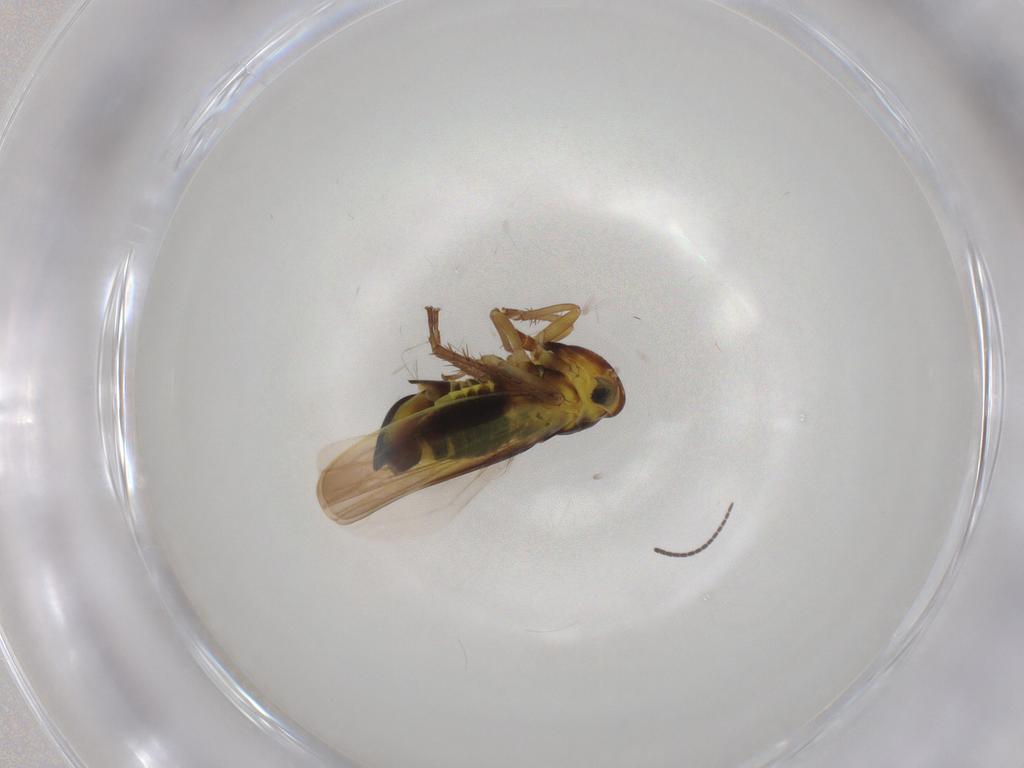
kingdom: Animalia
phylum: Arthropoda
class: Insecta
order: Hemiptera
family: Cicadellidae
